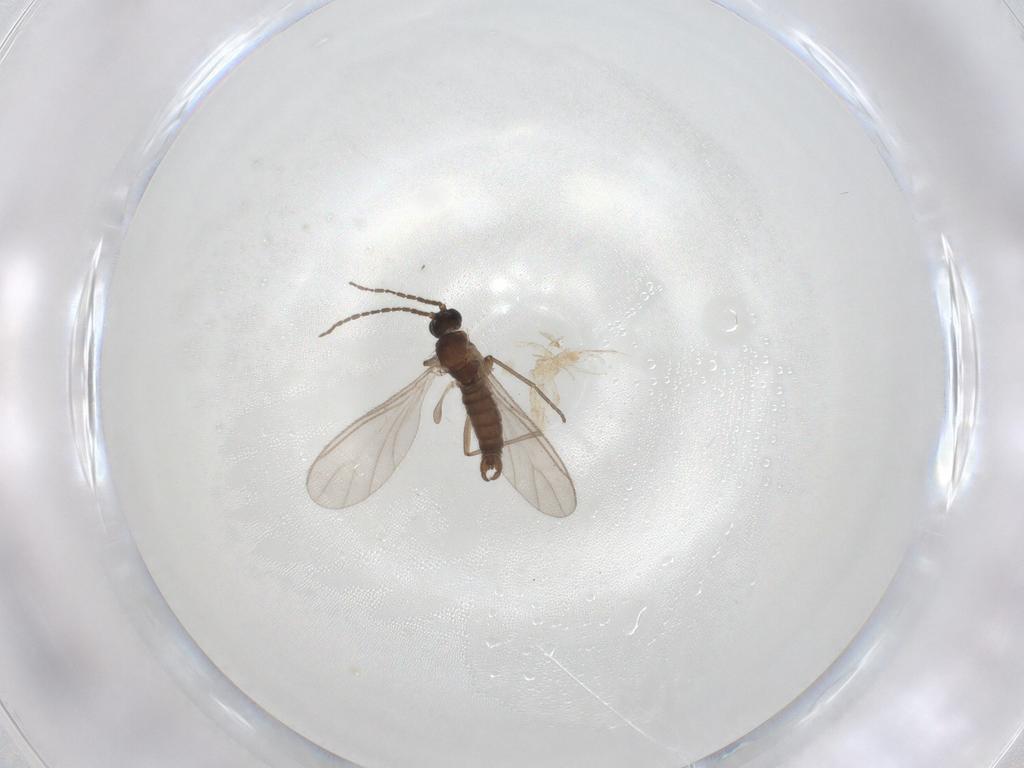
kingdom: Animalia
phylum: Arthropoda
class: Insecta
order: Diptera
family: Sciaridae
